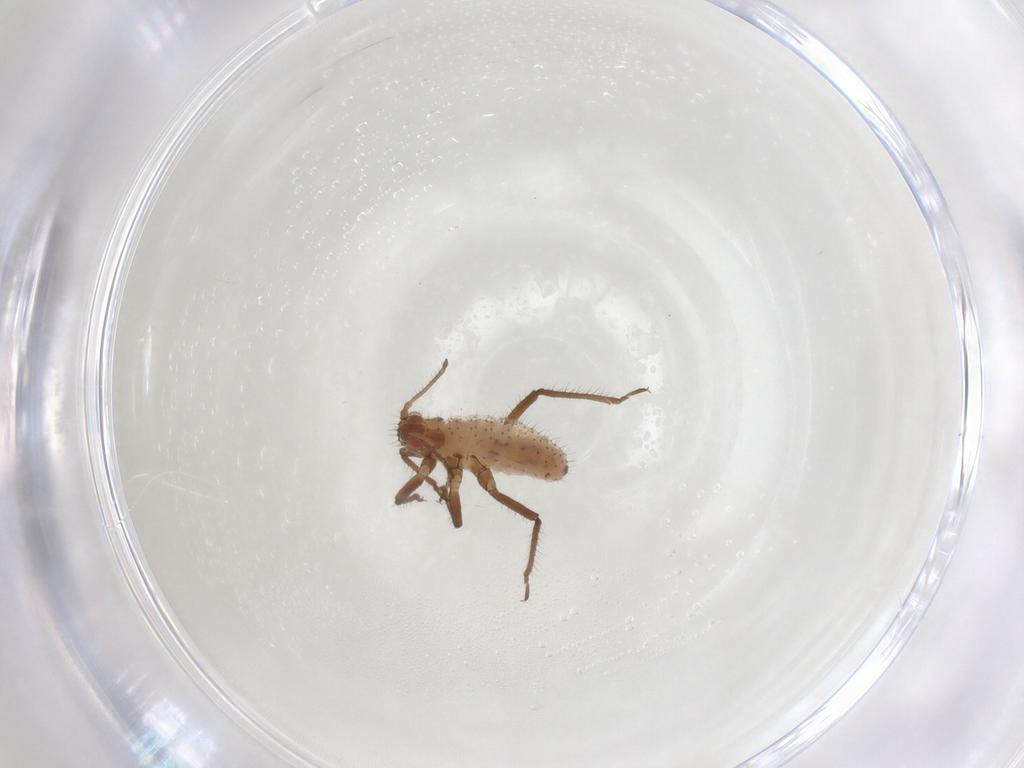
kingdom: Animalia
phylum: Arthropoda
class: Insecta
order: Hemiptera
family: Lachnidae
